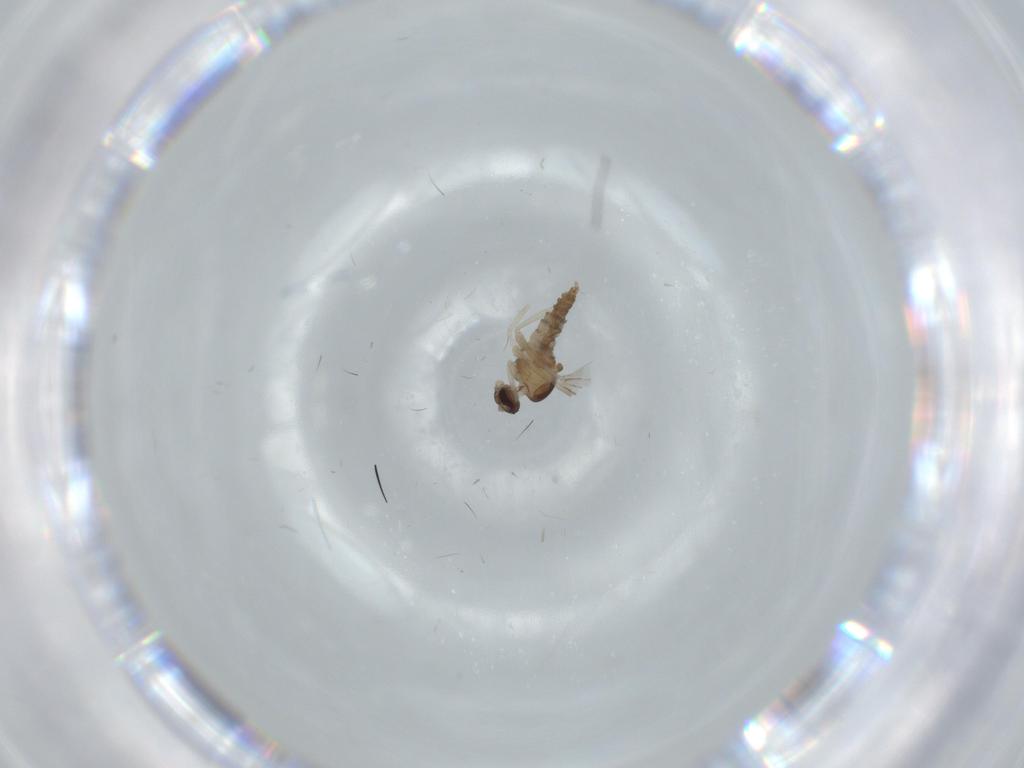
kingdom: Animalia
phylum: Arthropoda
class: Insecta
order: Diptera
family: Cecidomyiidae
